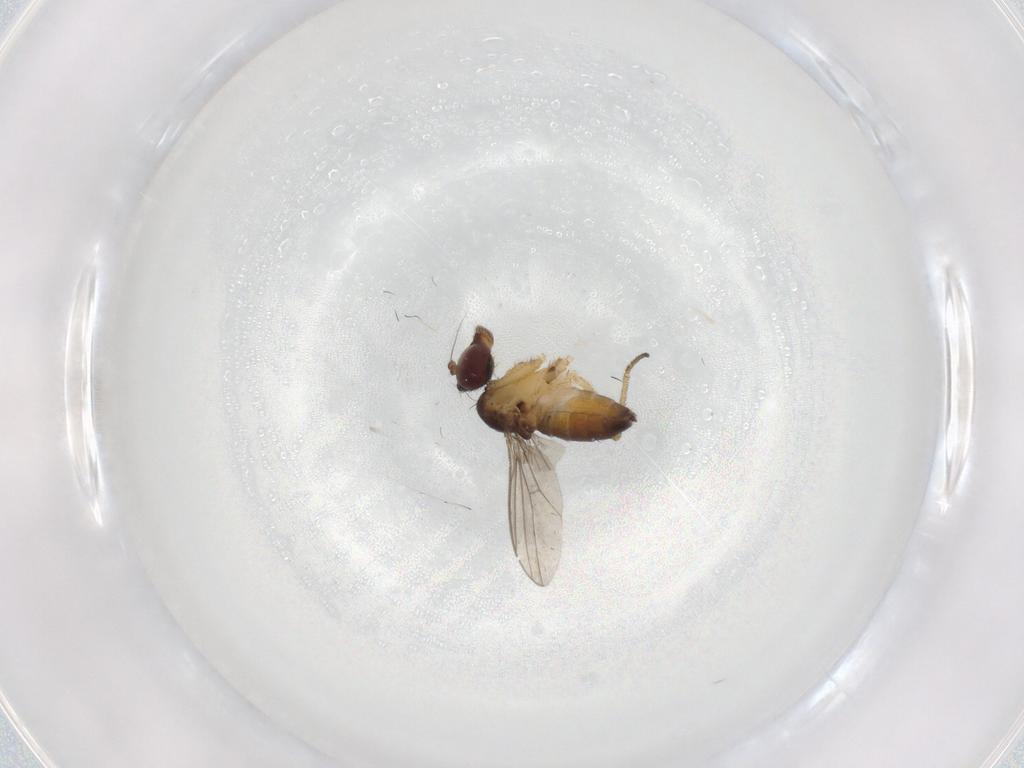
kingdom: Animalia
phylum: Arthropoda
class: Insecta
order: Diptera
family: Dolichopodidae
